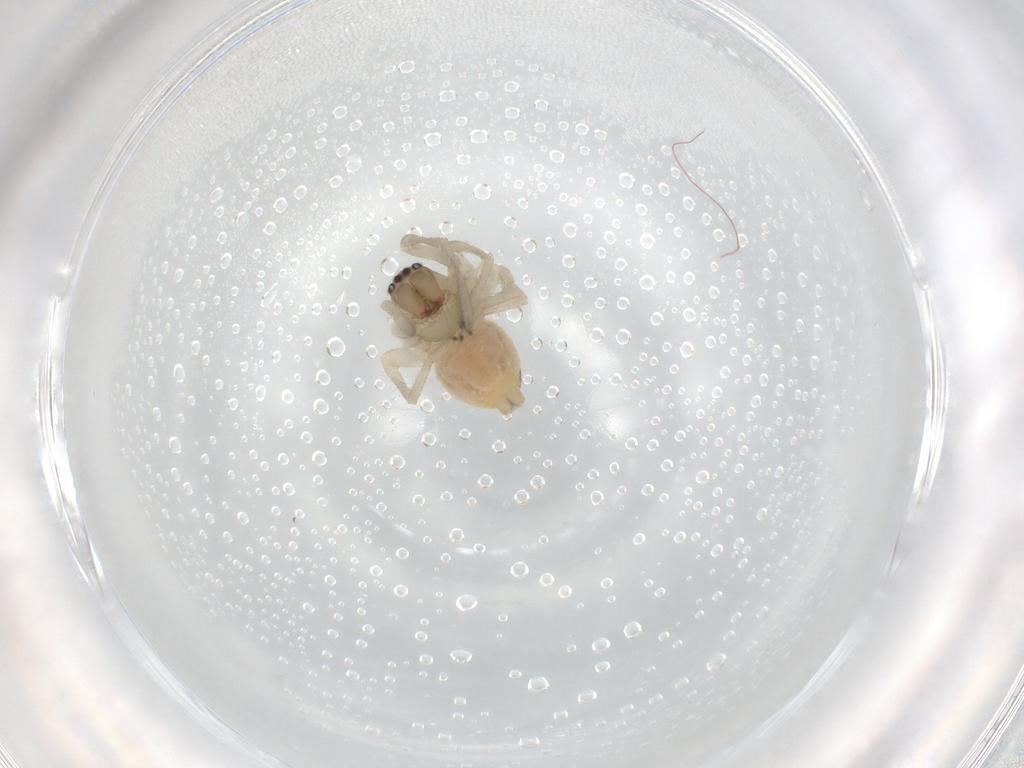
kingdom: Animalia
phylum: Arthropoda
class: Arachnida
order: Araneae
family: Cheiracanthiidae
